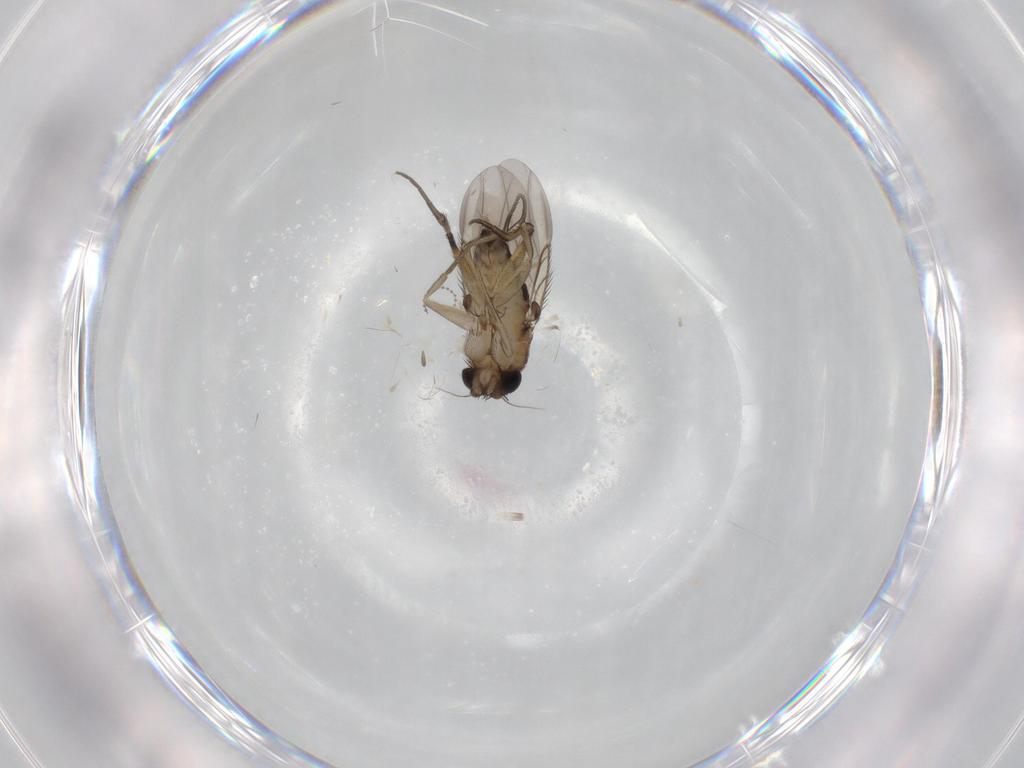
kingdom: Animalia
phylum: Arthropoda
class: Insecta
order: Diptera
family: Phoridae
